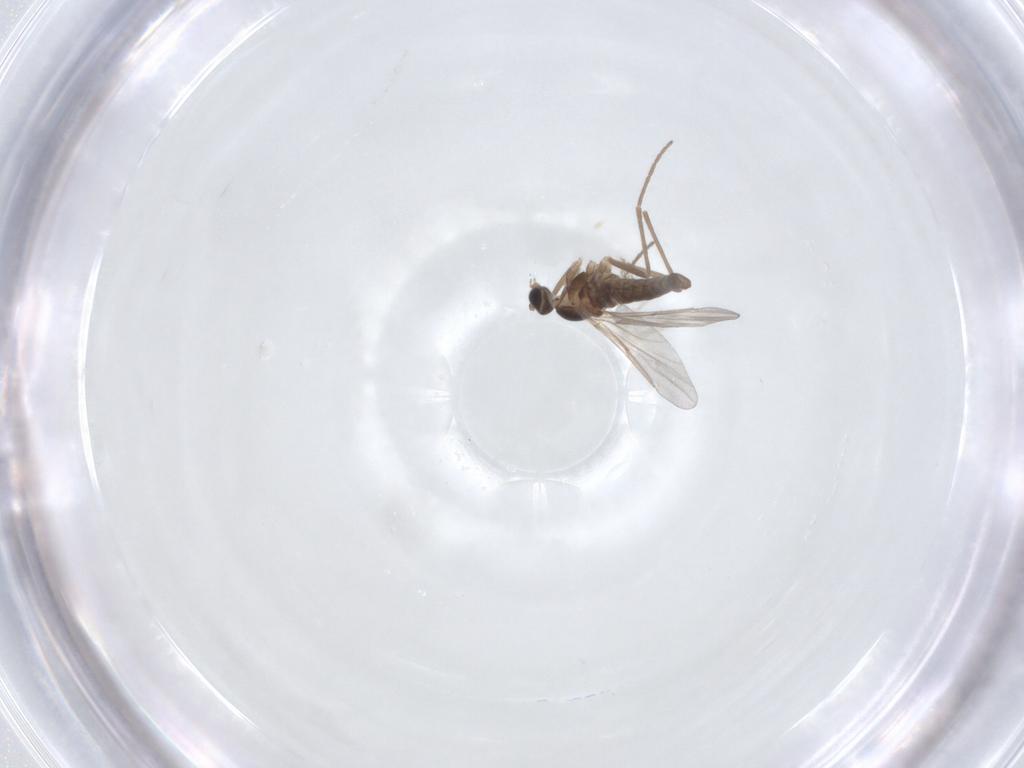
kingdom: Animalia
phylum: Arthropoda
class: Insecta
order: Diptera
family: Cecidomyiidae
